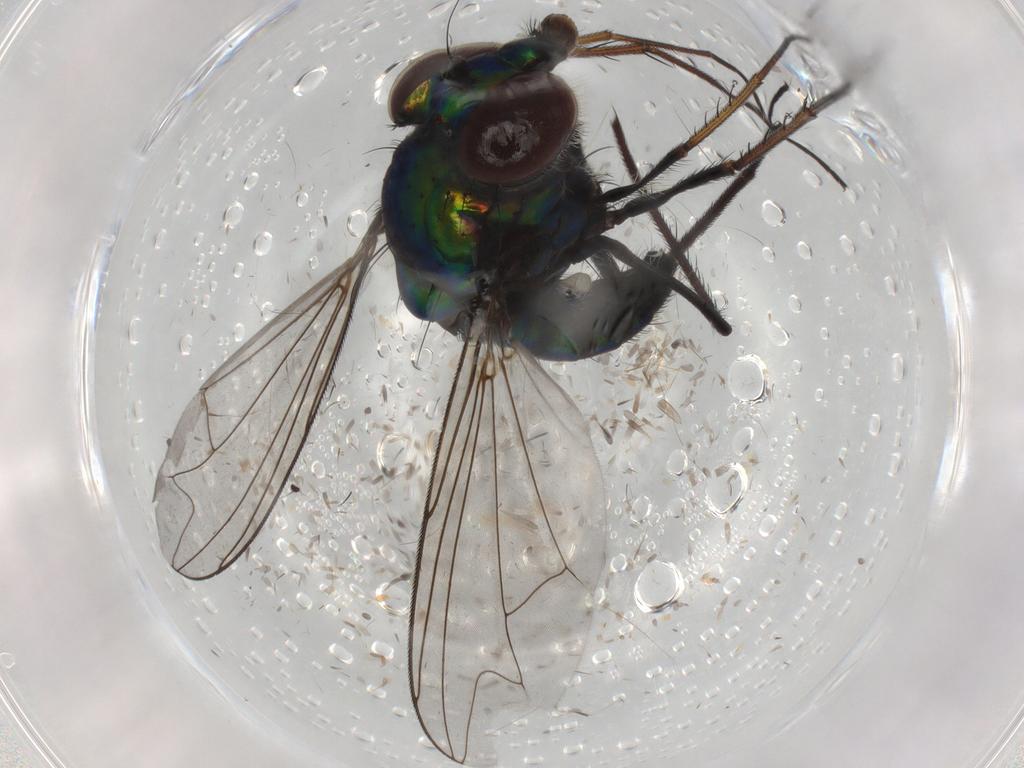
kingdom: Animalia
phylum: Arthropoda
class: Insecta
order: Diptera
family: Dolichopodidae
